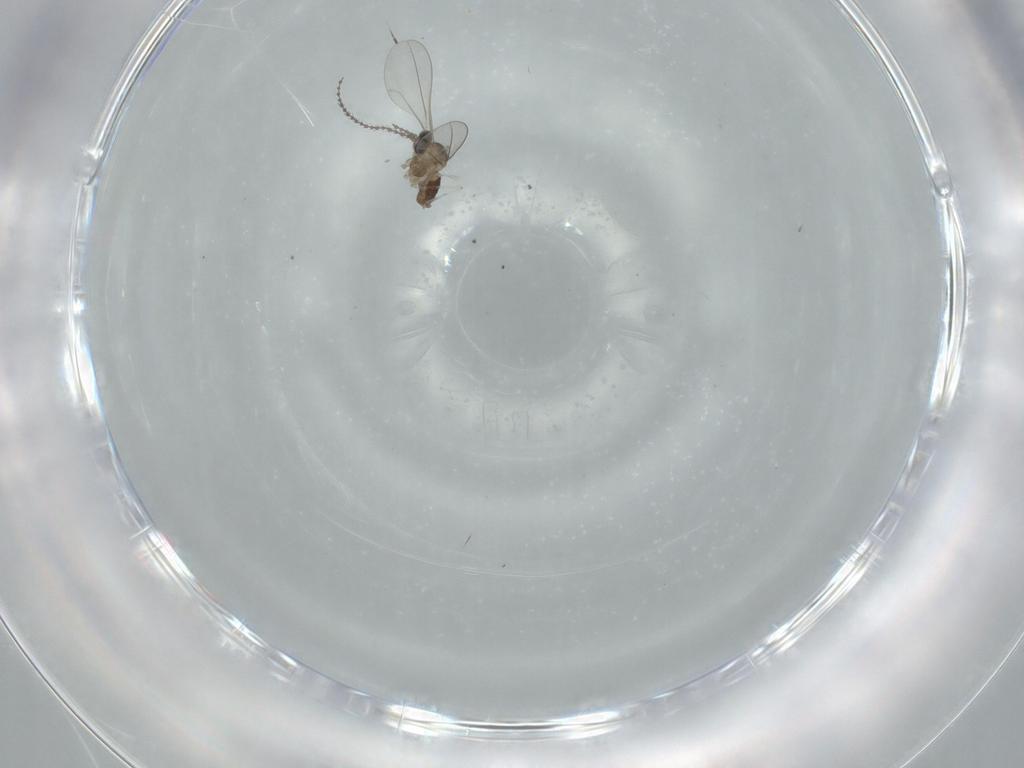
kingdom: Animalia
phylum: Arthropoda
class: Insecta
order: Diptera
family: Cecidomyiidae
